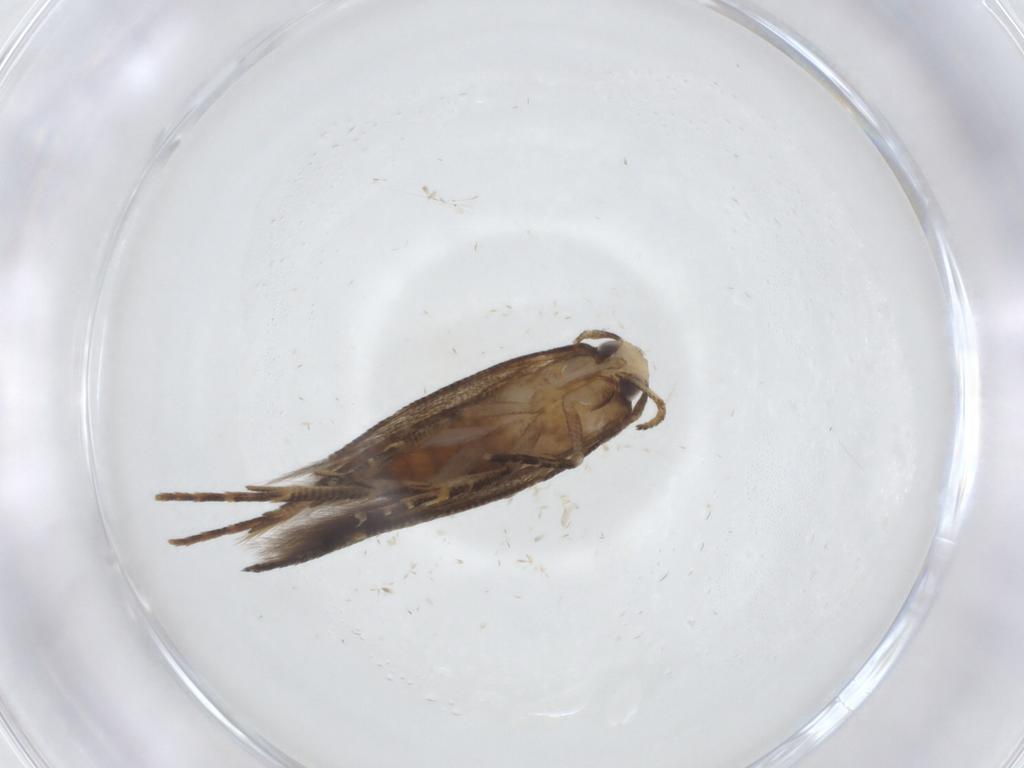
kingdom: Animalia
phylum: Arthropoda
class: Insecta
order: Lepidoptera
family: Cosmopterigidae
